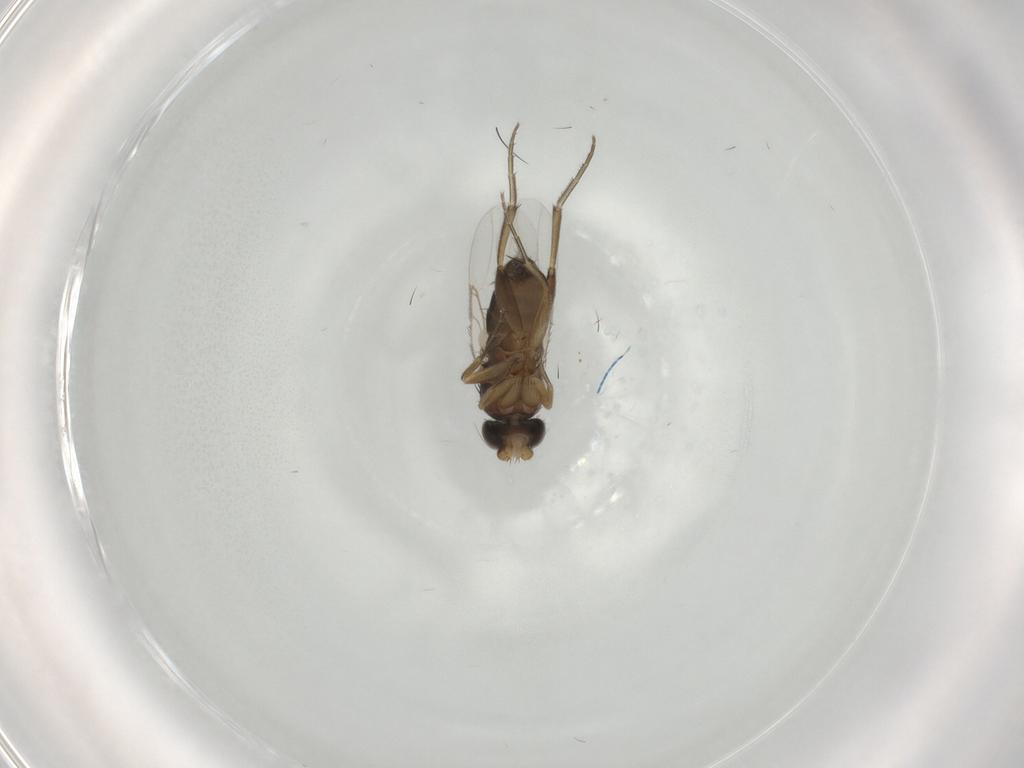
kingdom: Animalia
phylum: Arthropoda
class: Insecta
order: Diptera
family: Phoridae
